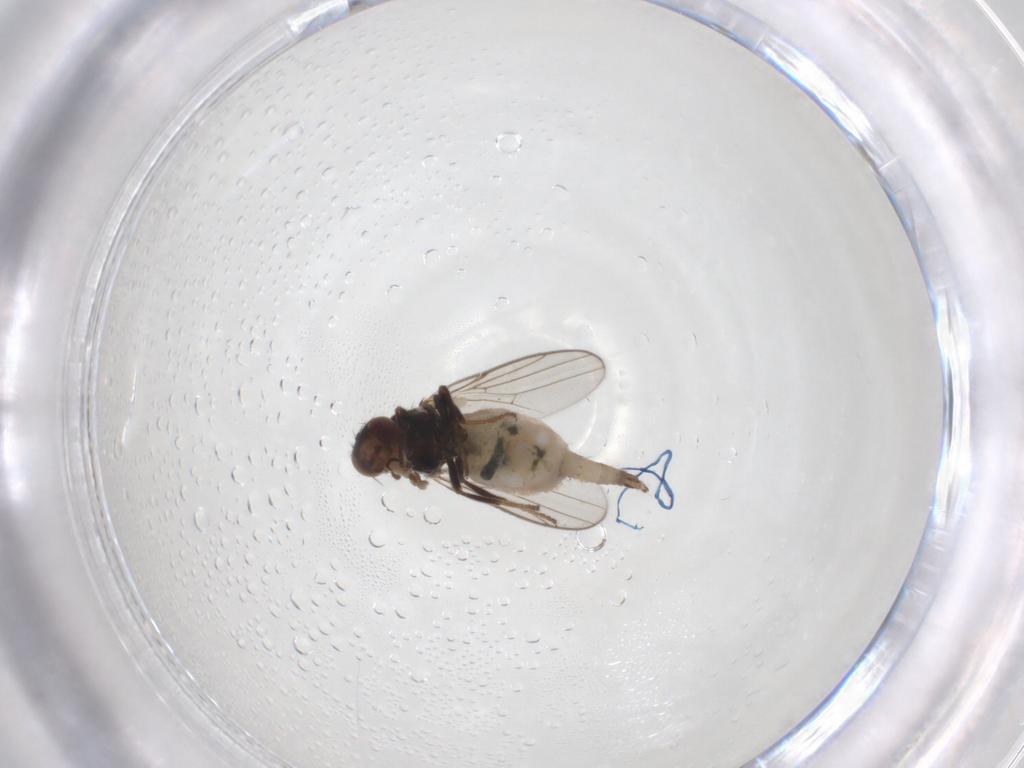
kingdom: Animalia
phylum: Arthropoda
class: Insecta
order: Diptera
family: Chloropidae
